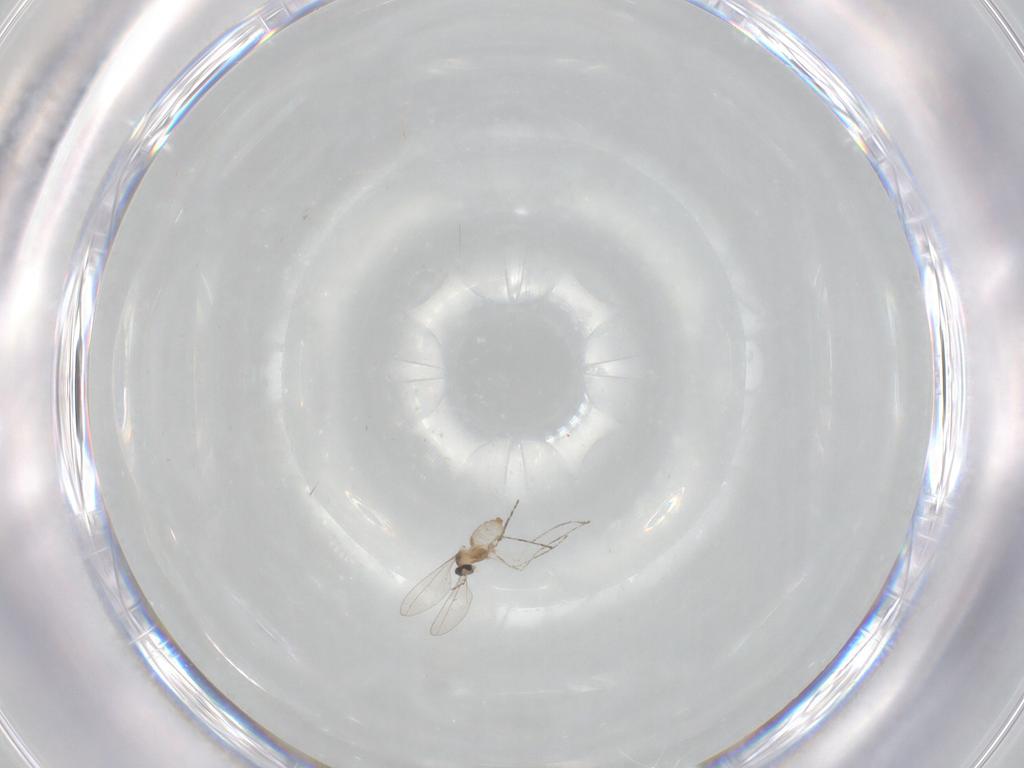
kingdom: Animalia
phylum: Arthropoda
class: Insecta
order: Diptera
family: Cecidomyiidae
